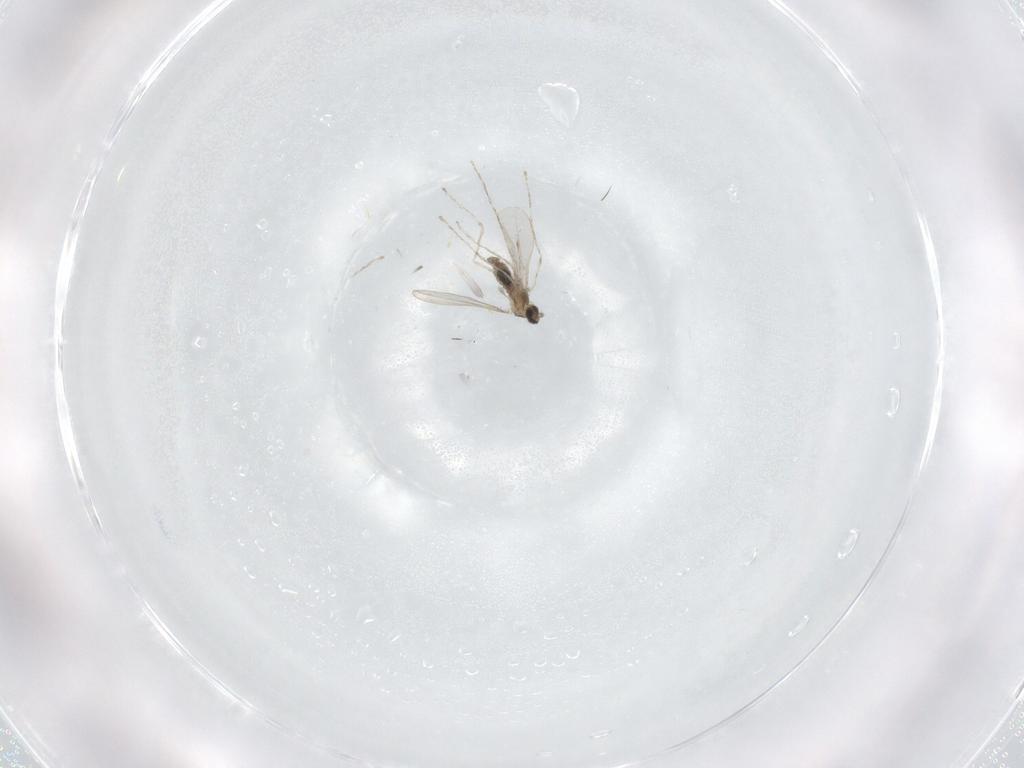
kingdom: Animalia
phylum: Arthropoda
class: Insecta
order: Diptera
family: Cecidomyiidae
